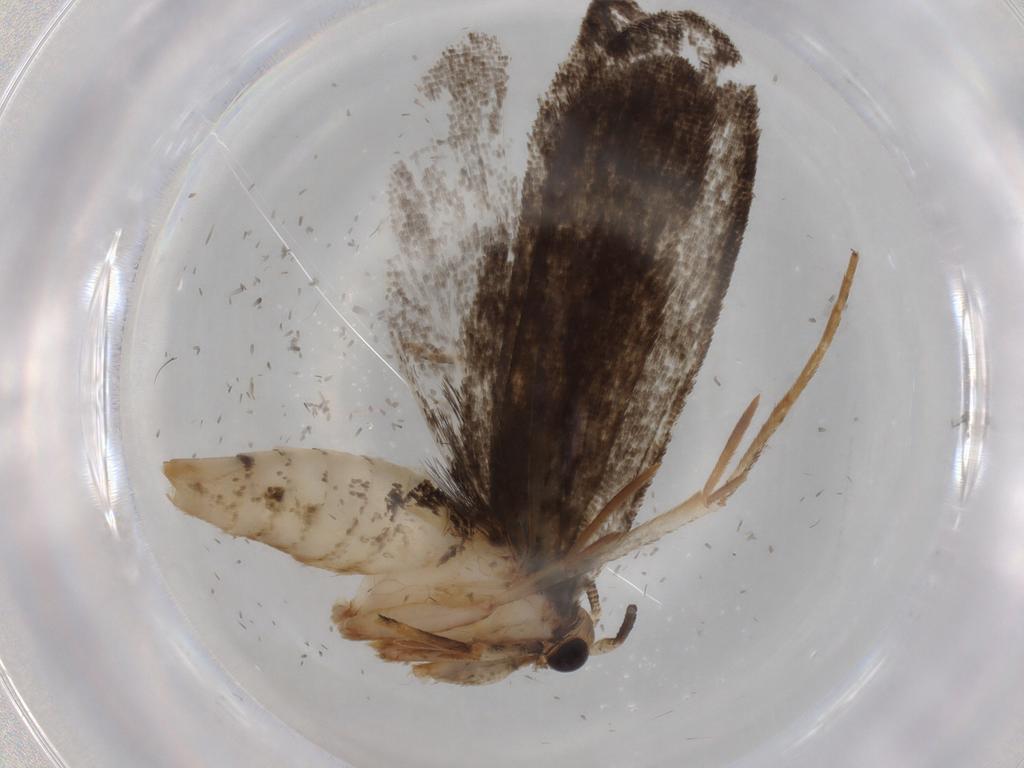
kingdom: Animalia
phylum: Arthropoda
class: Insecta
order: Lepidoptera
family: Tineidae
